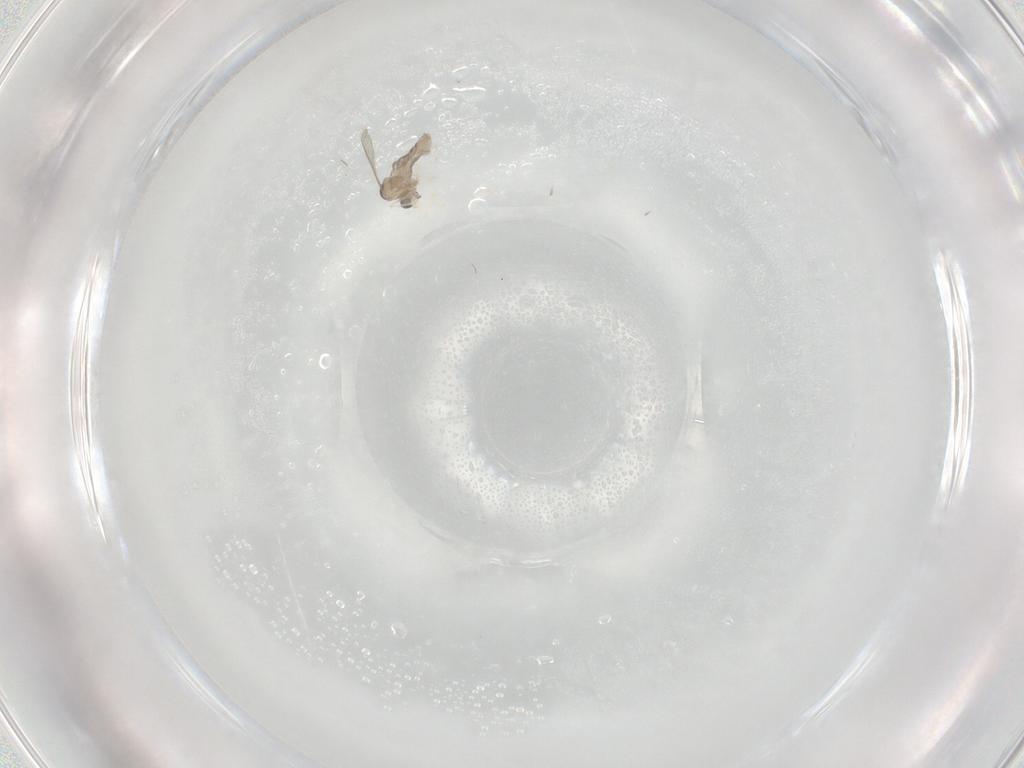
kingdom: Animalia
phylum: Arthropoda
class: Insecta
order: Diptera
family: Cecidomyiidae
